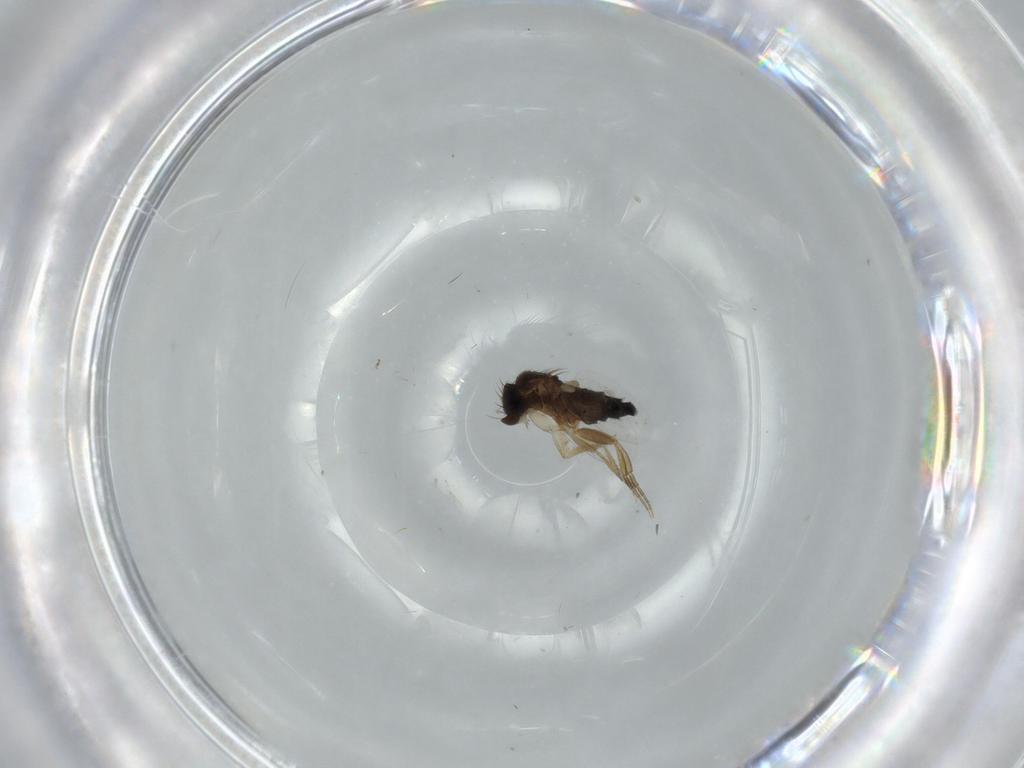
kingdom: Animalia
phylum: Arthropoda
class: Insecta
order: Diptera
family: Phoridae
